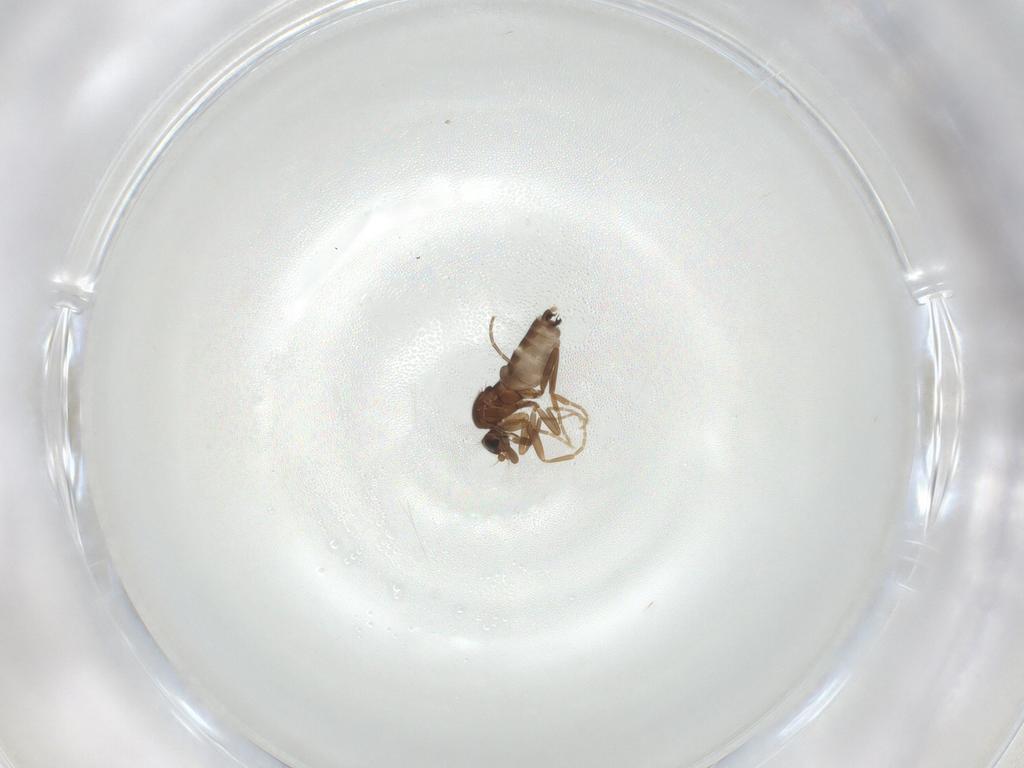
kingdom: Animalia
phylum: Arthropoda
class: Insecta
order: Diptera
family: Phoridae
